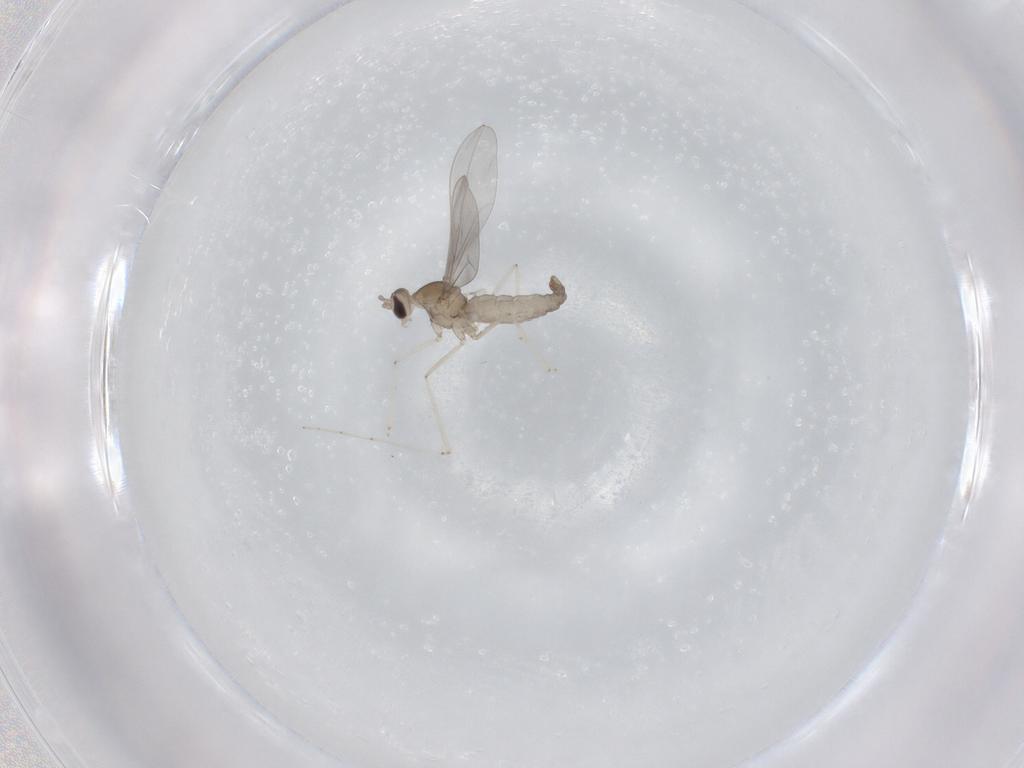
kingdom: Animalia
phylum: Arthropoda
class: Insecta
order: Diptera
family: Cecidomyiidae
